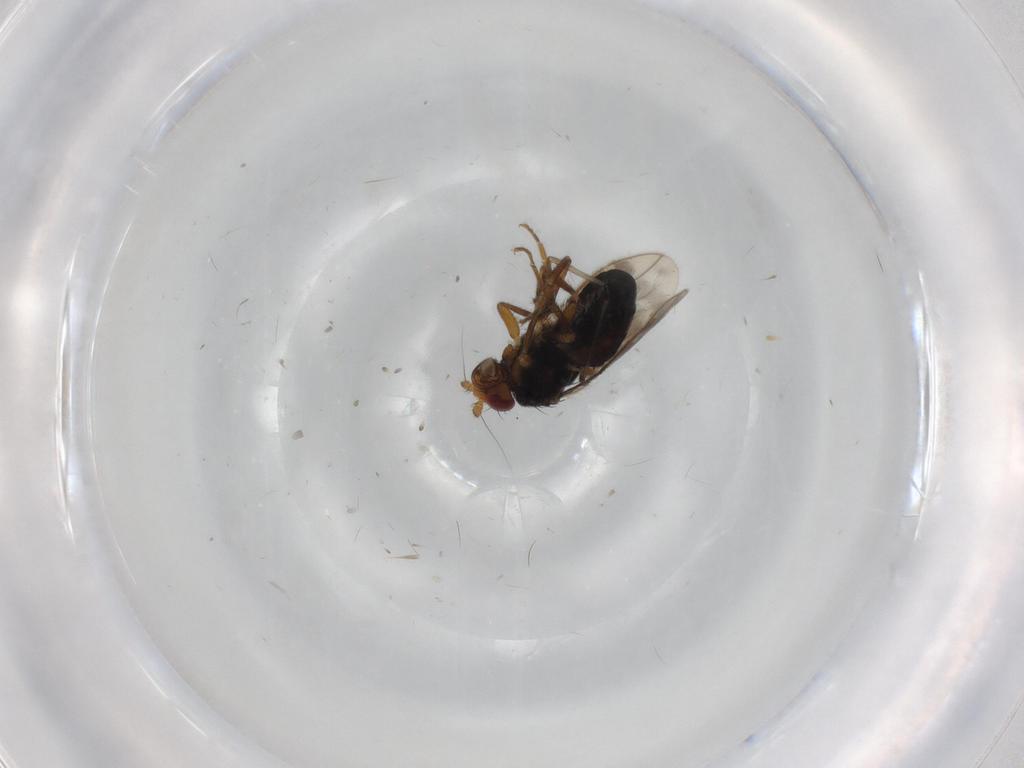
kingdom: Animalia
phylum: Arthropoda
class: Insecta
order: Diptera
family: Sphaeroceridae
